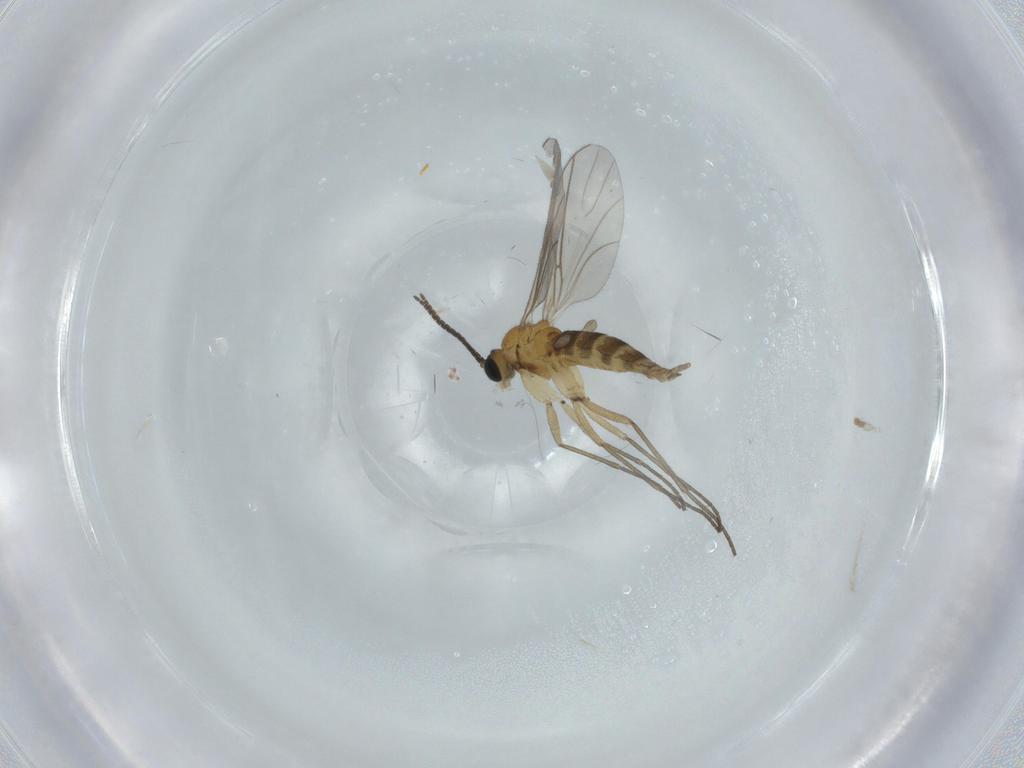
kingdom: Animalia
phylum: Arthropoda
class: Insecta
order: Diptera
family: Sciaridae
